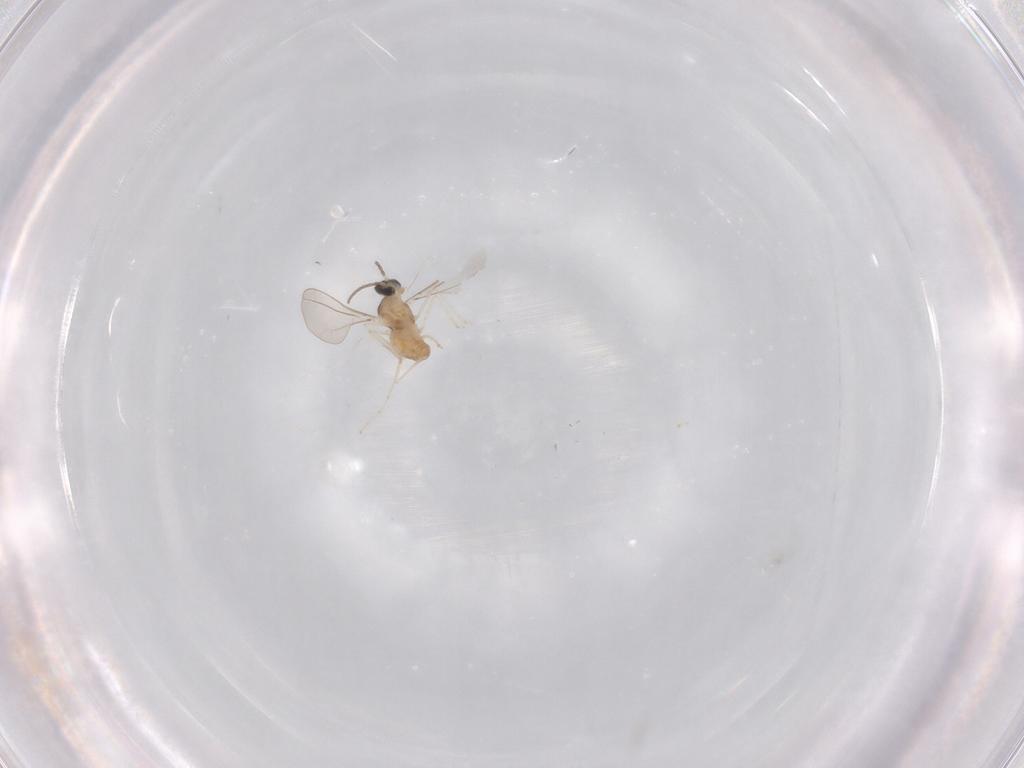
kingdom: Animalia
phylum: Arthropoda
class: Insecta
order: Diptera
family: Cecidomyiidae
